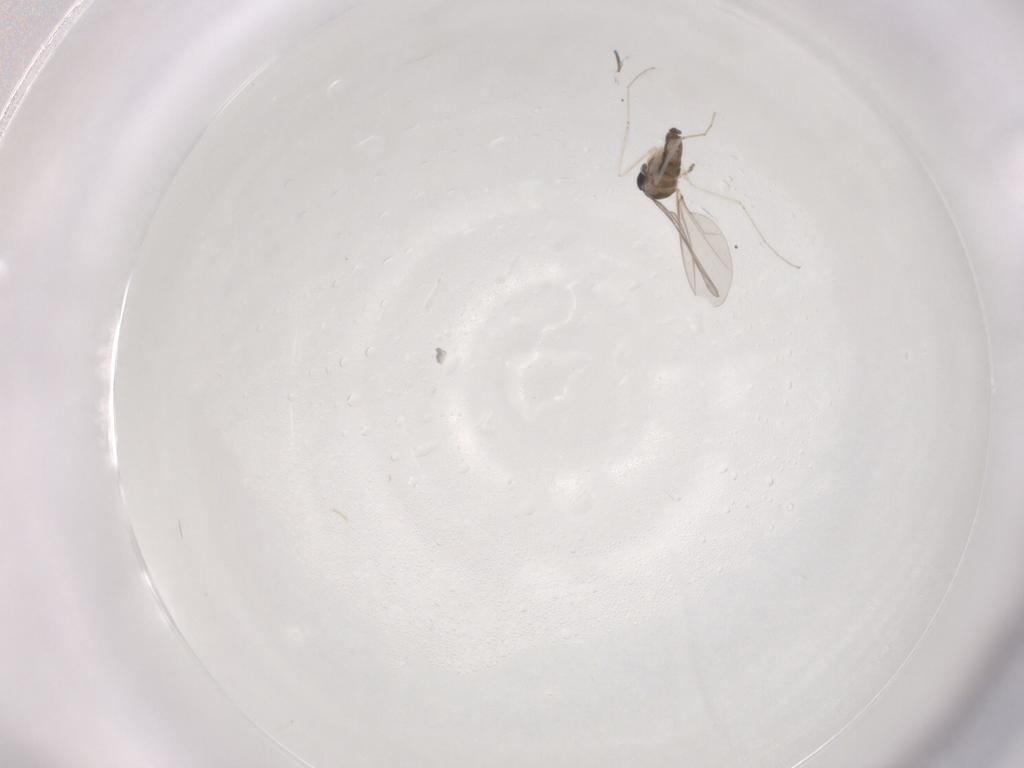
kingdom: Animalia
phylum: Arthropoda
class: Insecta
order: Diptera
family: Cecidomyiidae
